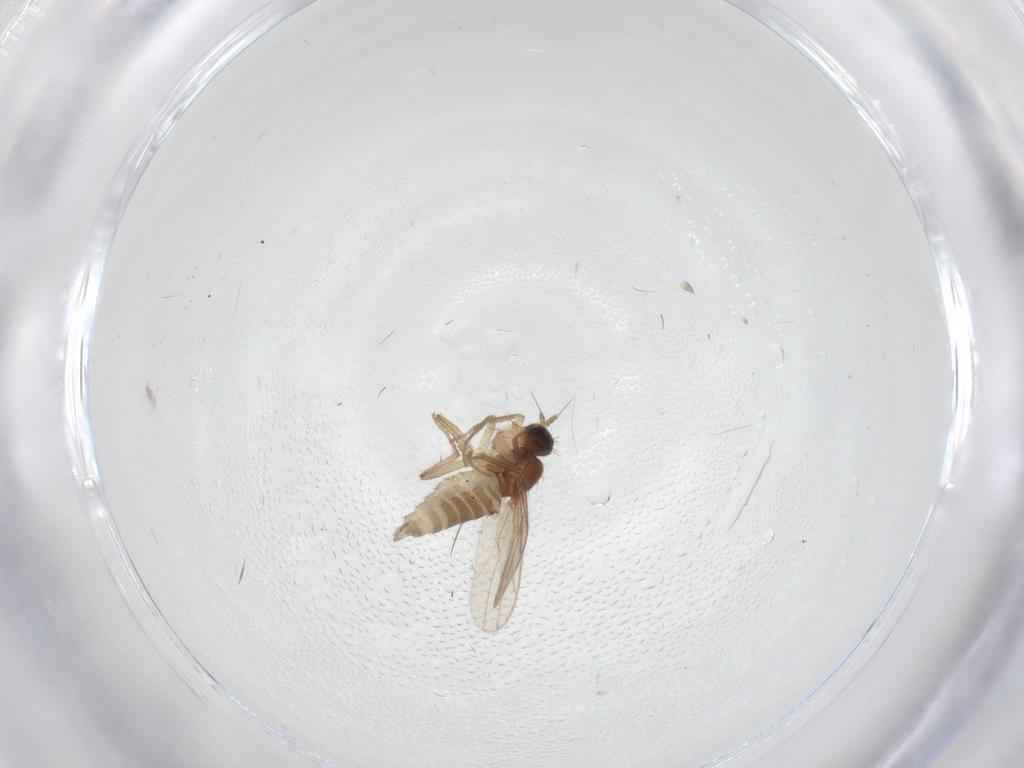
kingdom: Animalia
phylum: Arthropoda
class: Insecta
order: Diptera
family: Hybotidae
